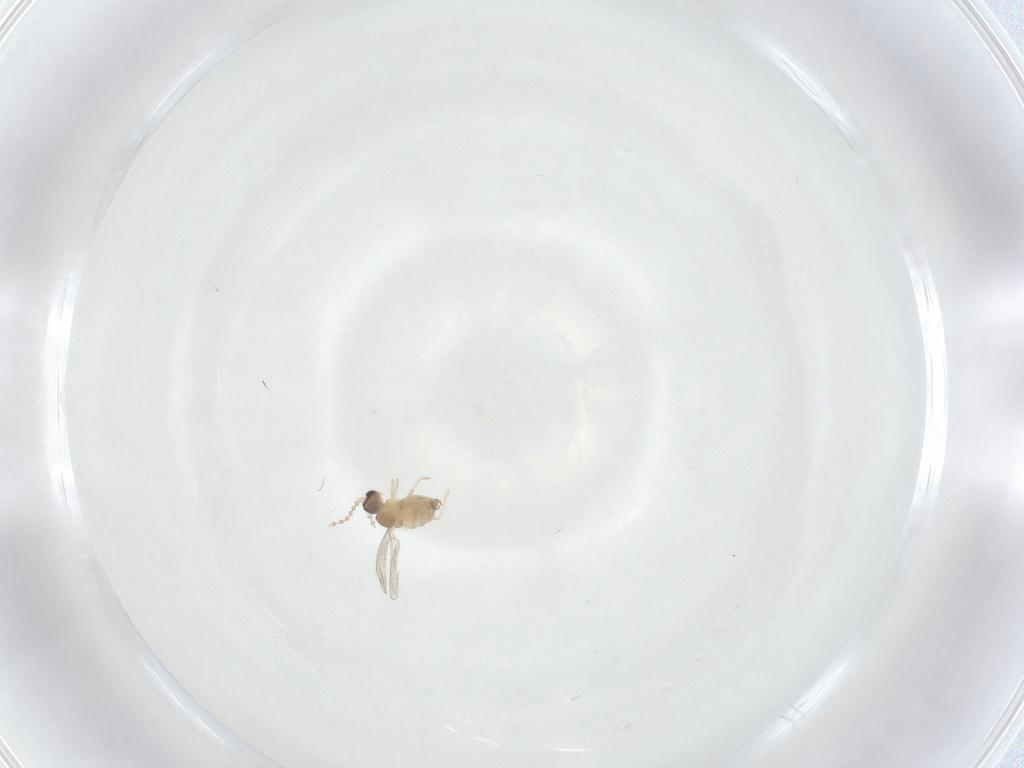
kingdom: Animalia
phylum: Arthropoda
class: Insecta
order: Diptera
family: Cecidomyiidae
